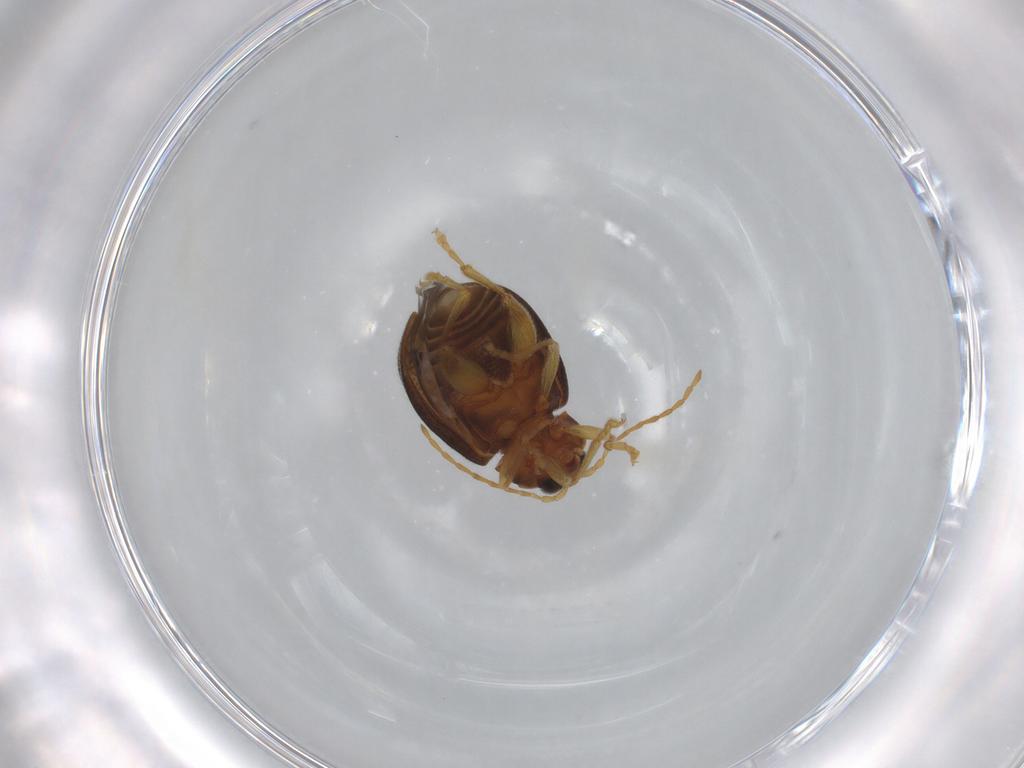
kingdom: Animalia
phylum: Arthropoda
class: Insecta
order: Coleoptera
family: Chrysomelidae
